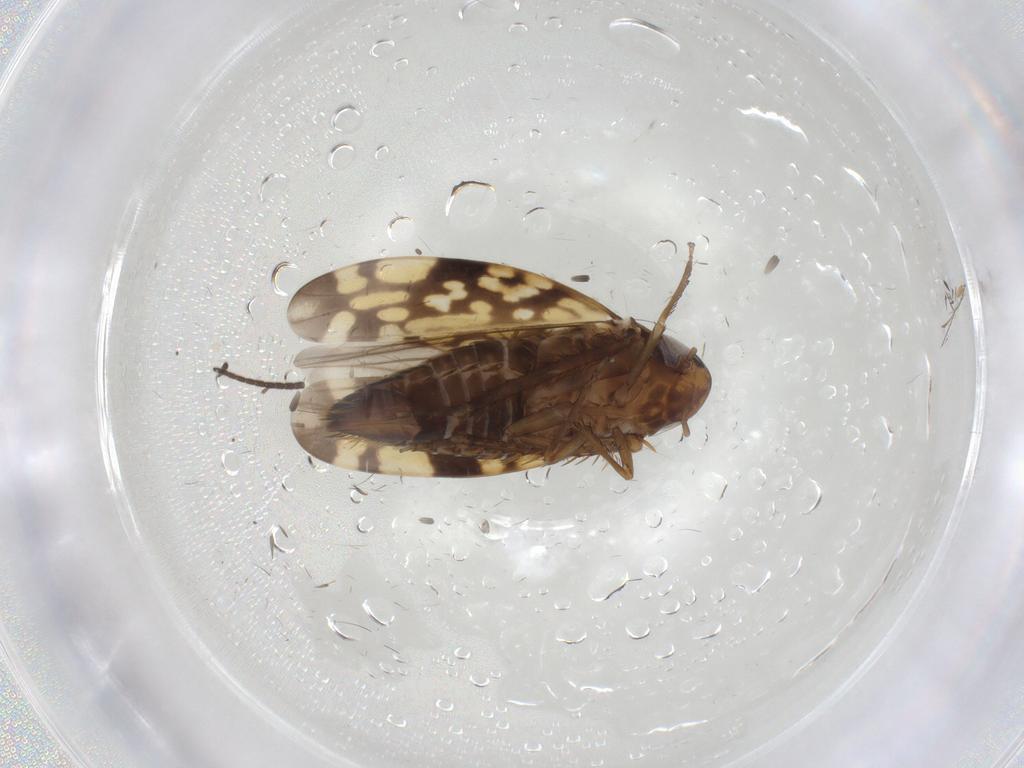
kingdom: Animalia
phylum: Arthropoda
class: Insecta
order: Hemiptera
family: Cicadellidae
